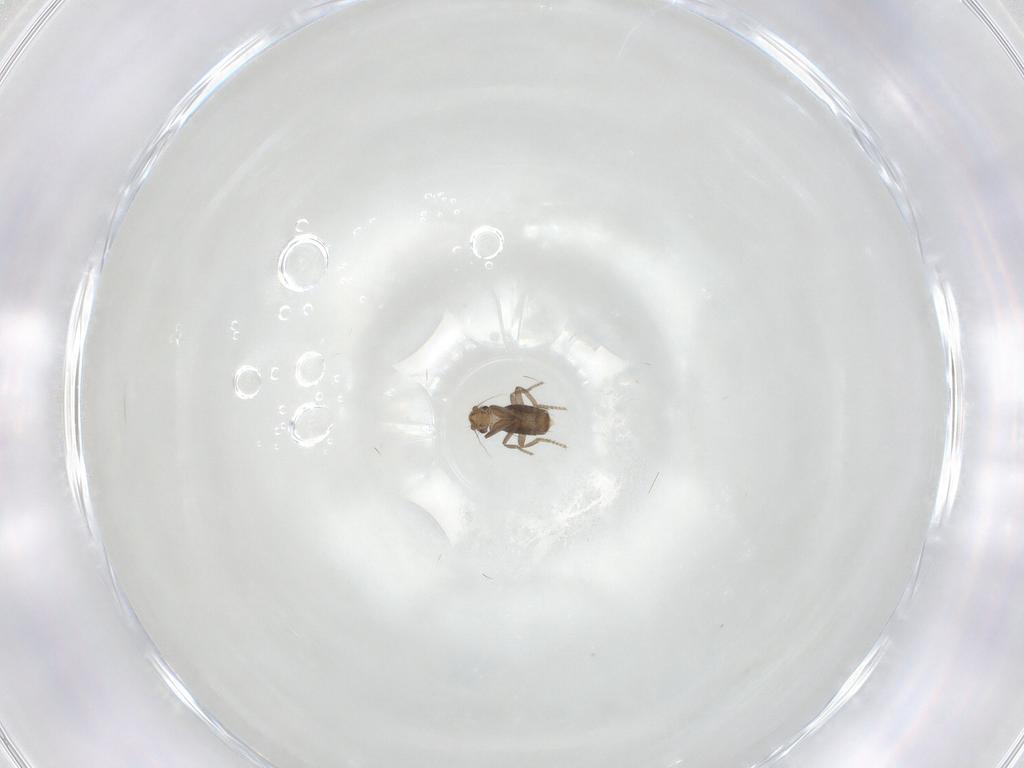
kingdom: Animalia
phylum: Arthropoda
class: Insecta
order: Diptera
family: Phoridae
